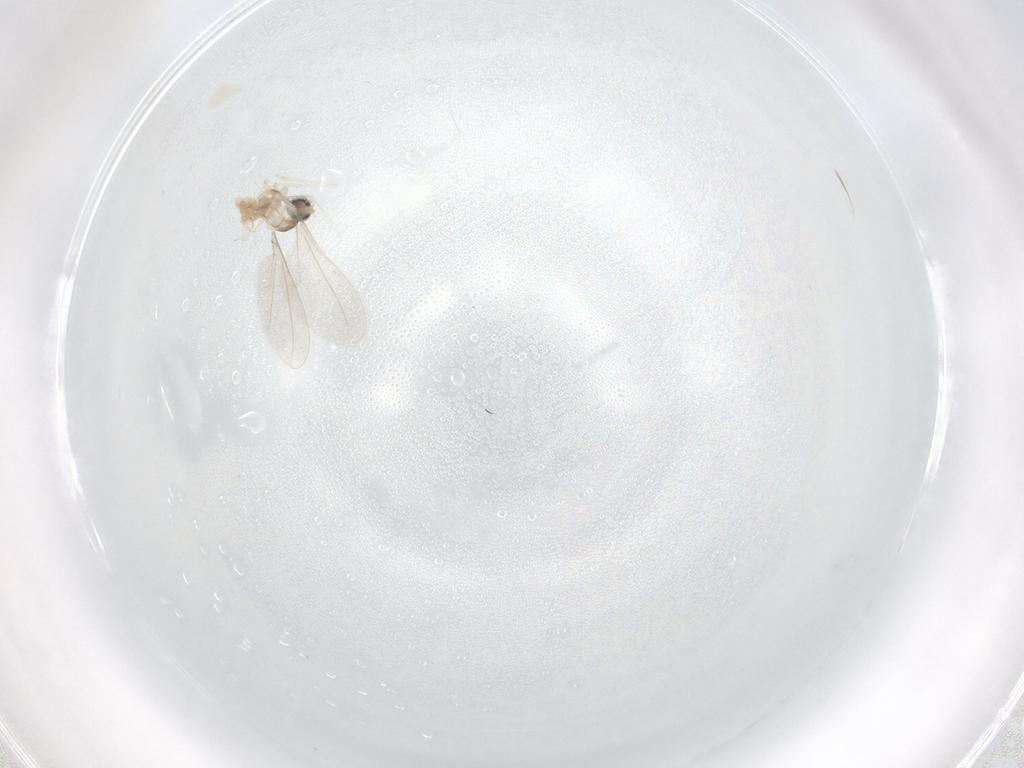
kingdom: Animalia
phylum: Arthropoda
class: Insecta
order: Diptera
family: Cecidomyiidae
